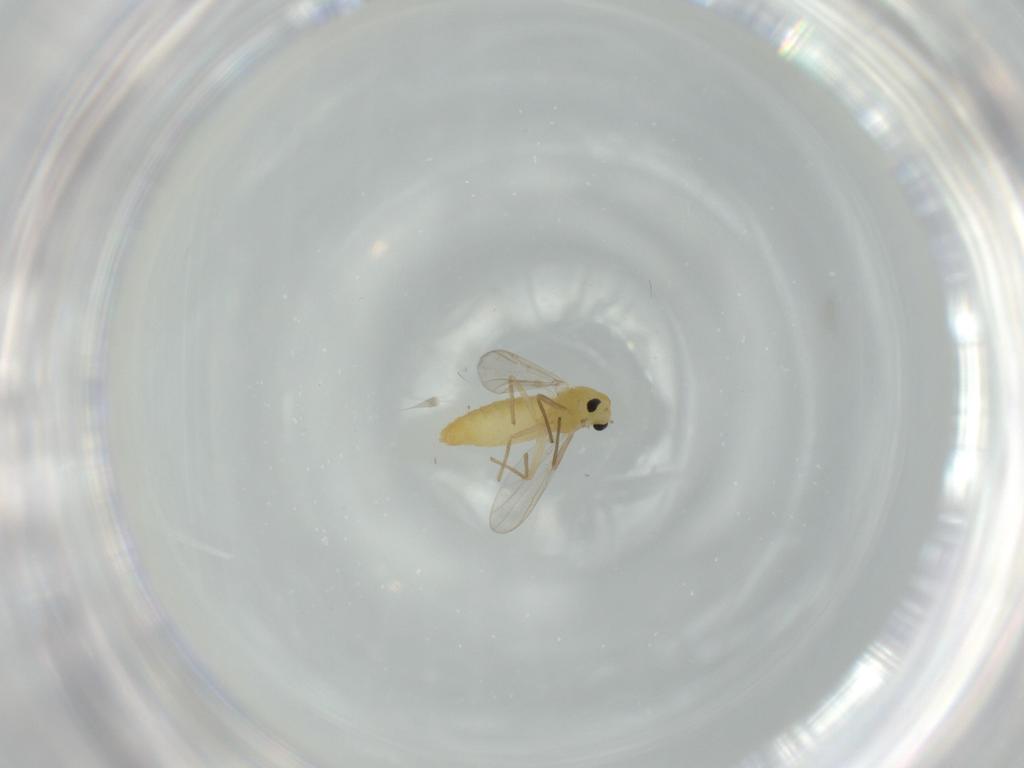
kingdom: Animalia
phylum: Arthropoda
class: Insecta
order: Diptera
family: Chironomidae
